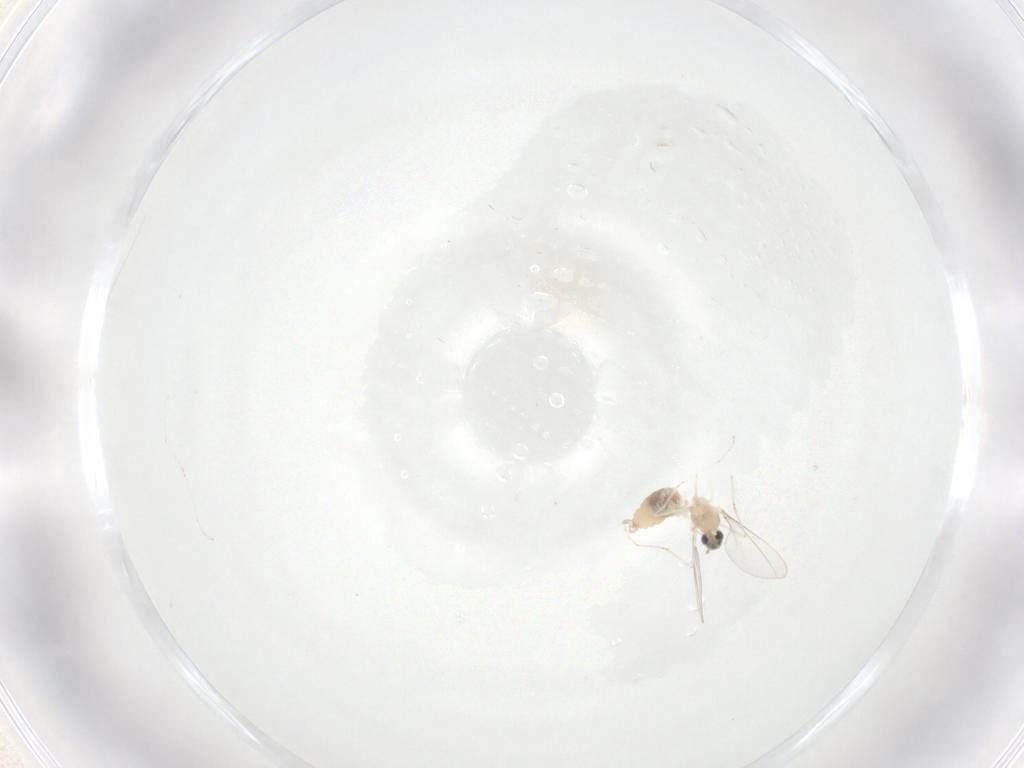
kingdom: Animalia
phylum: Arthropoda
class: Insecta
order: Diptera
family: Cecidomyiidae
